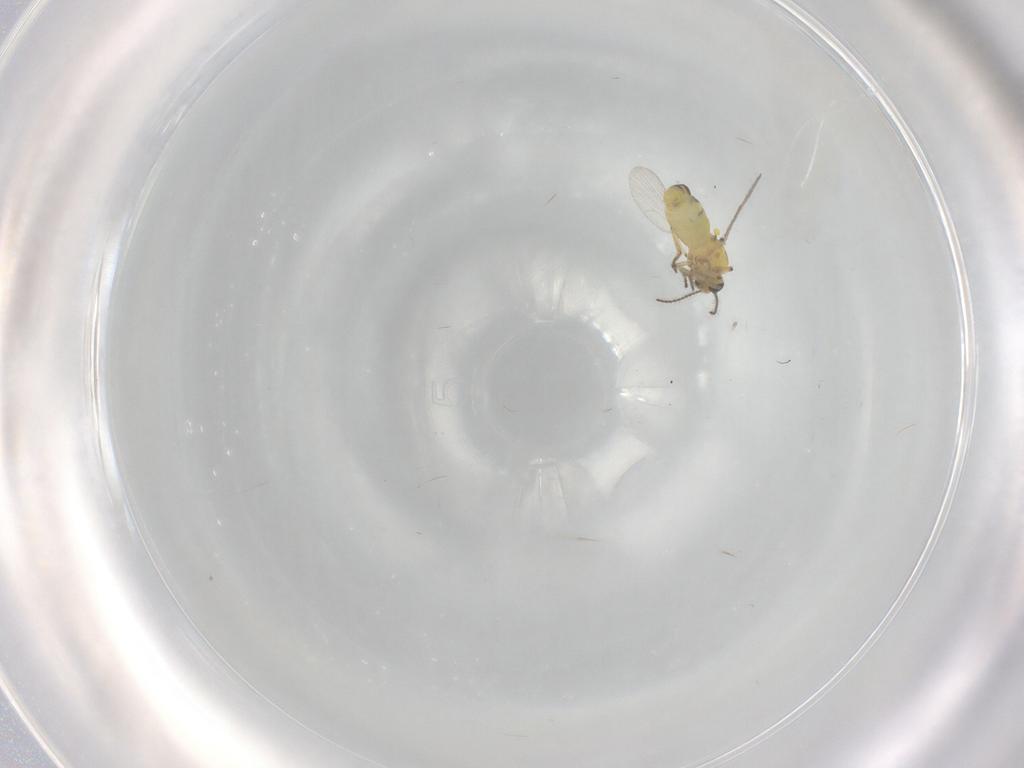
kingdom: Animalia
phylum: Arthropoda
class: Insecta
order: Diptera
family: Ceratopogonidae
